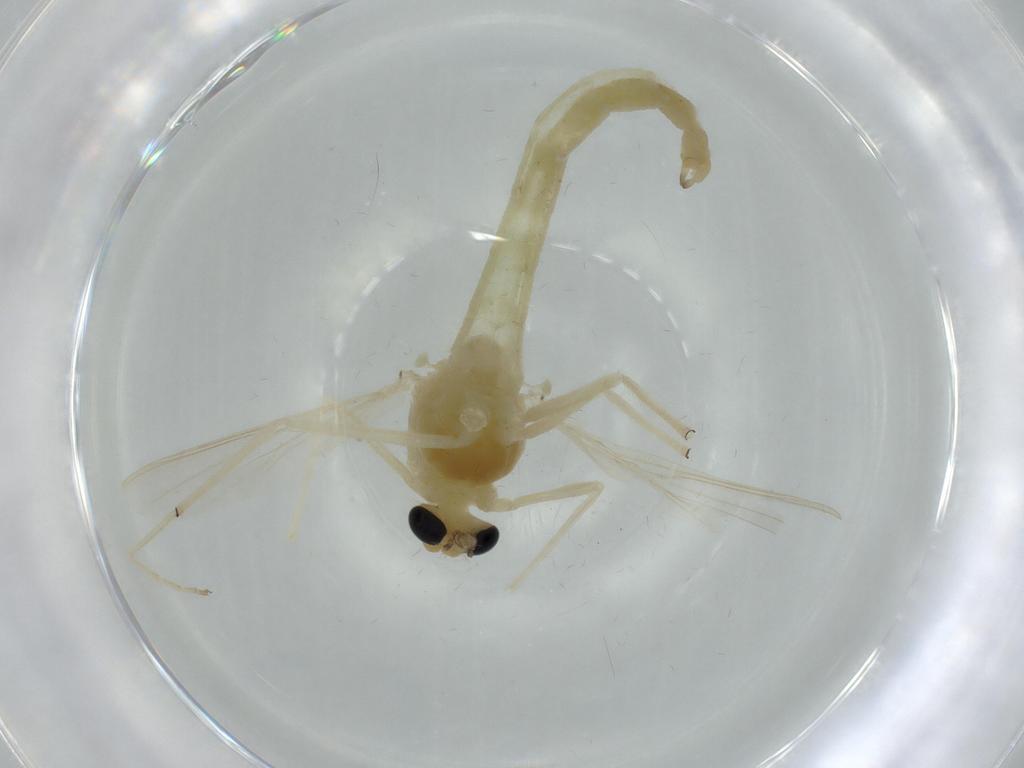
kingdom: Animalia
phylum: Arthropoda
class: Insecta
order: Diptera
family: Chironomidae
